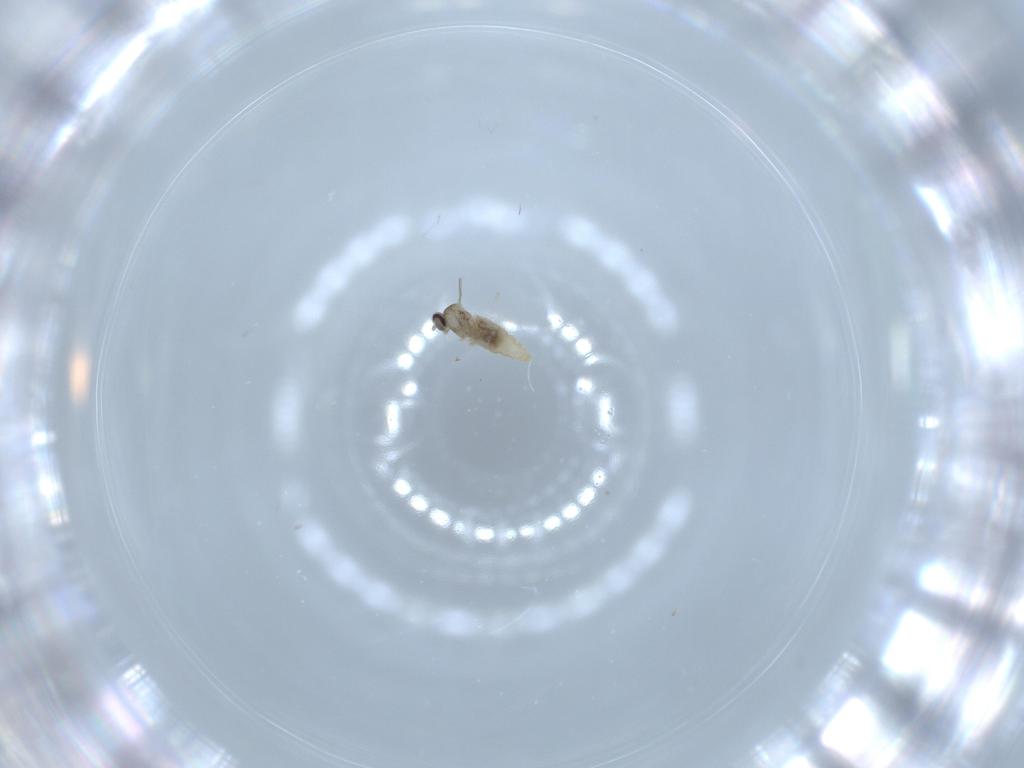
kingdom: Animalia
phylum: Arthropoda
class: Insecta
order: Diptera
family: Cecidomyiidae
